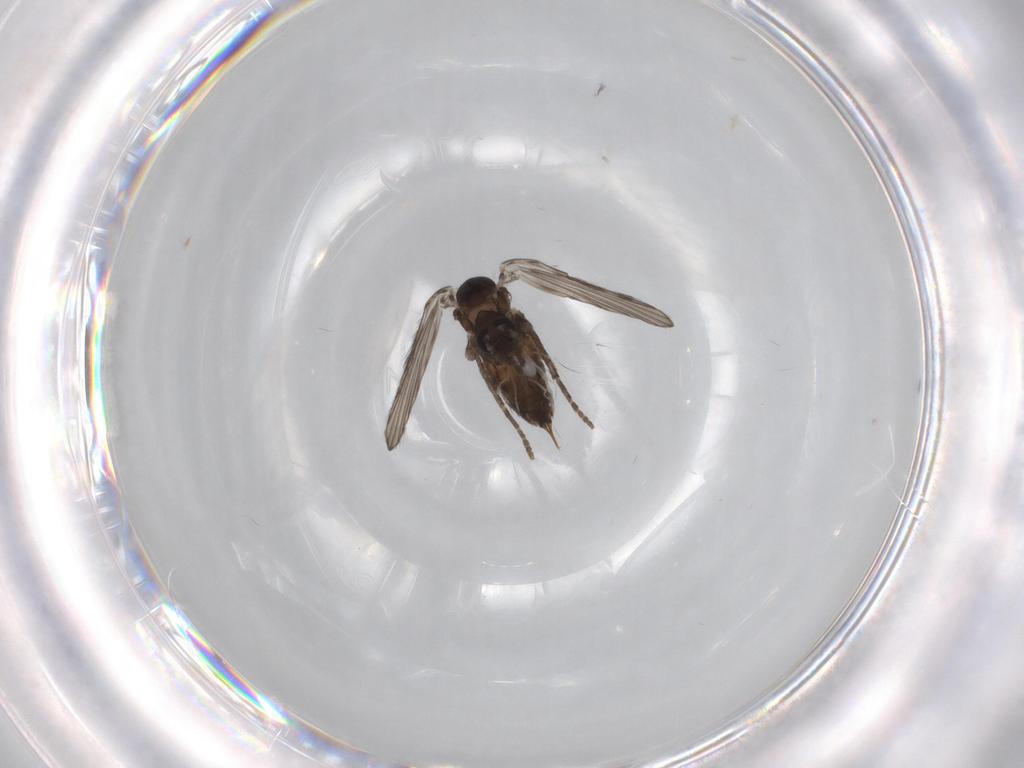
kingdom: Animalia
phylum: Arthropoda
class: Insecta
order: Diptera
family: Psychodidae
